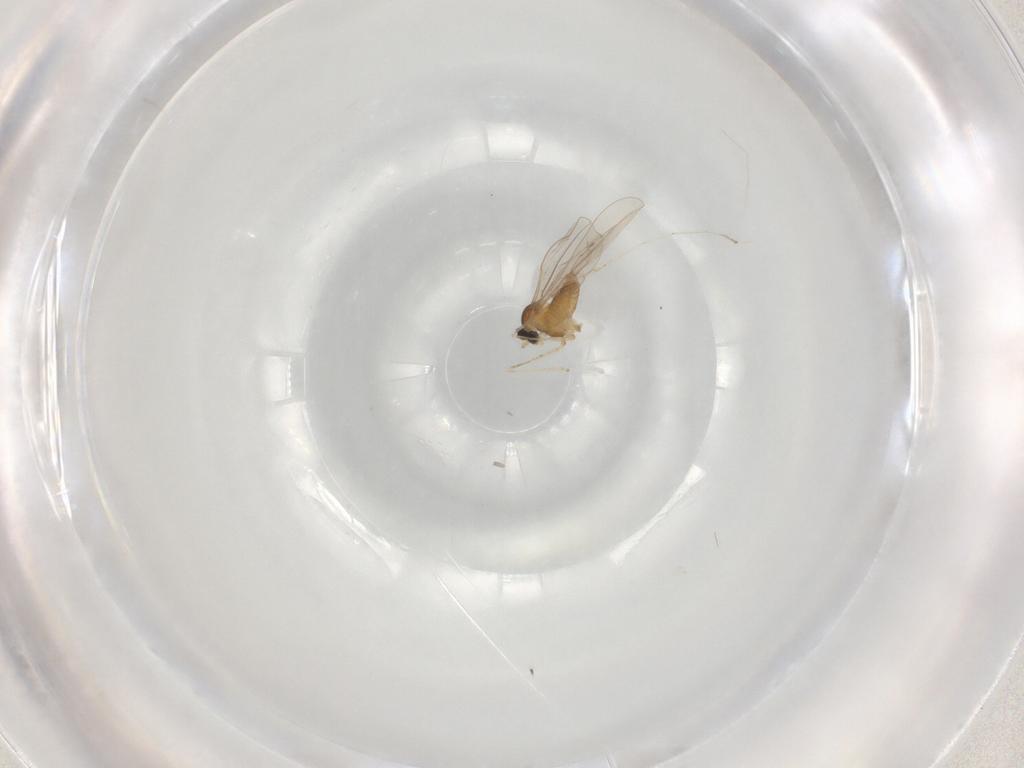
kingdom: Animalia
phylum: Arthropoda
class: Insecta
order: Diptera
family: Cecidomyiidae
